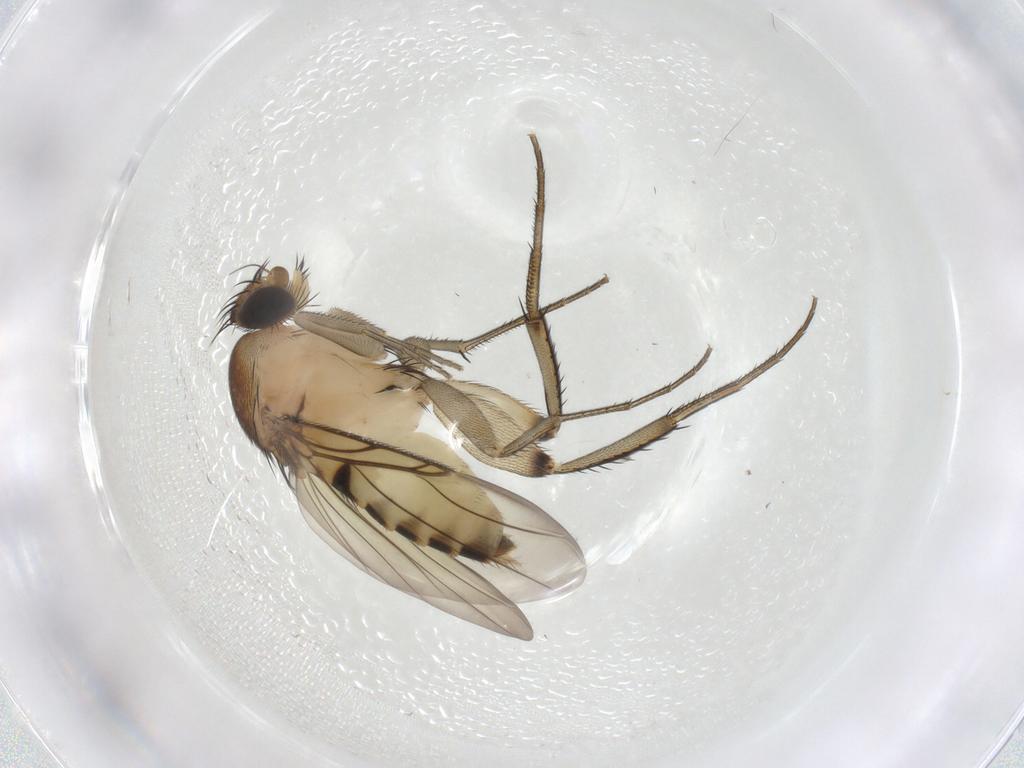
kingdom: Animalia
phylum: Arthropoda
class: Insecta
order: Diptera
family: Phoridae
